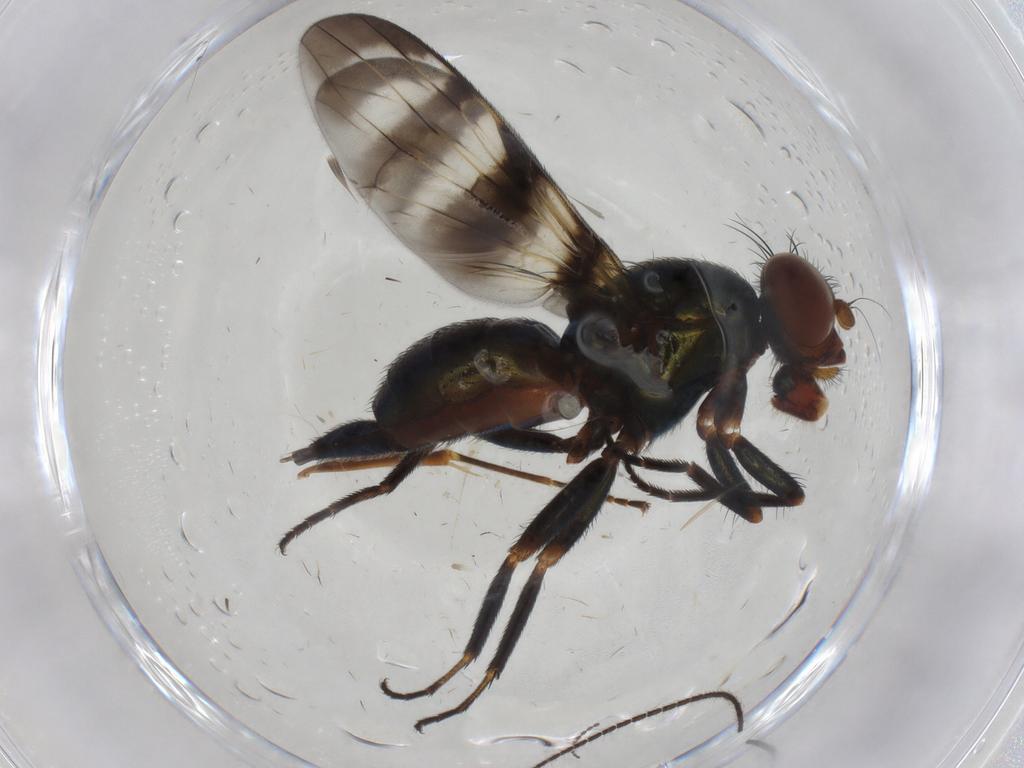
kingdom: Animalia
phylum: Arthropoda
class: Insecta
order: Diptera
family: Ulidiidae
